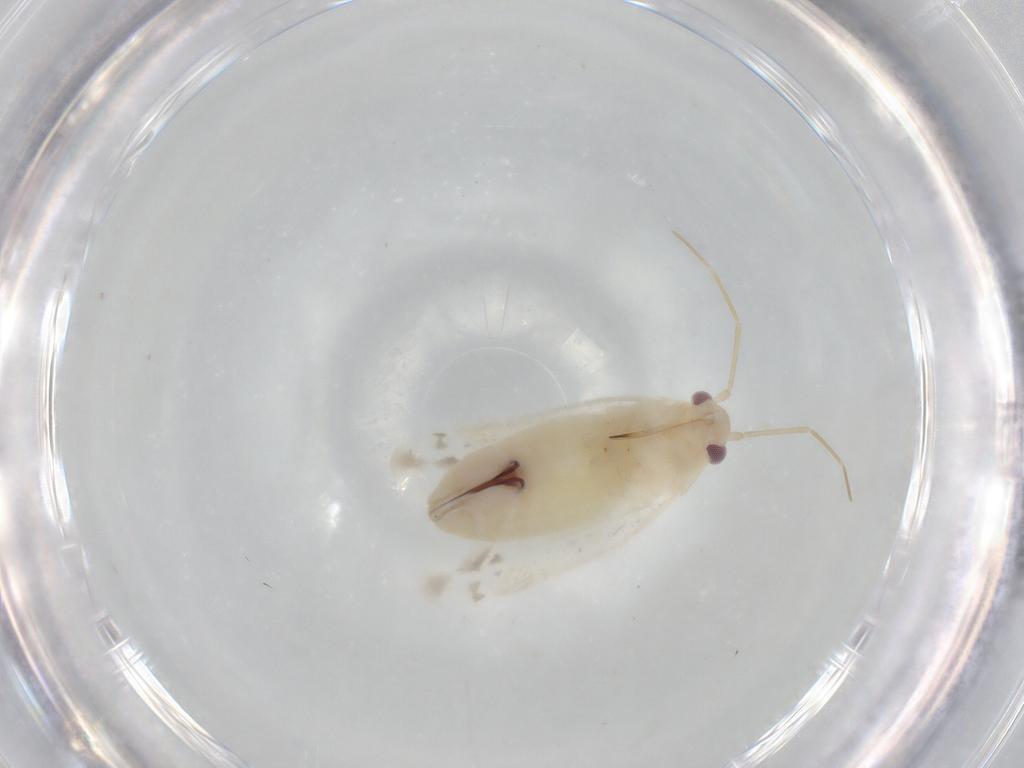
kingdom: Animalia
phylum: Arthropoda
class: Insecta
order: Hemiptera
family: Miridae
